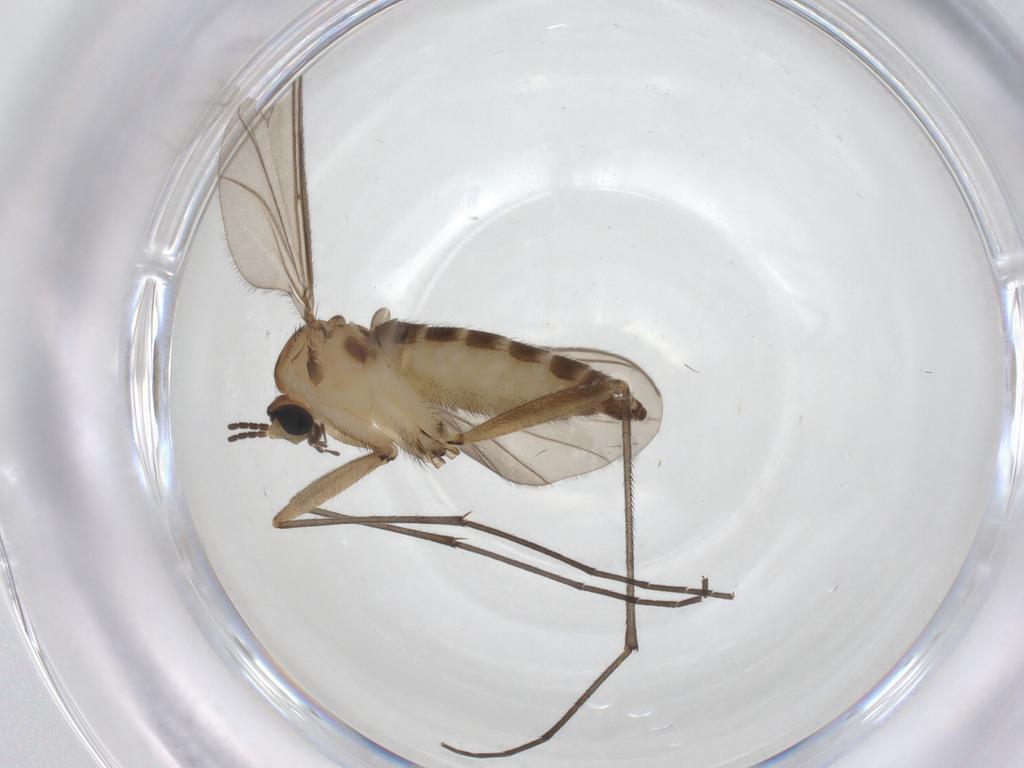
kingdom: Animalia
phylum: Arthropoda
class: Insecta
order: Diptera
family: Sciaridae
